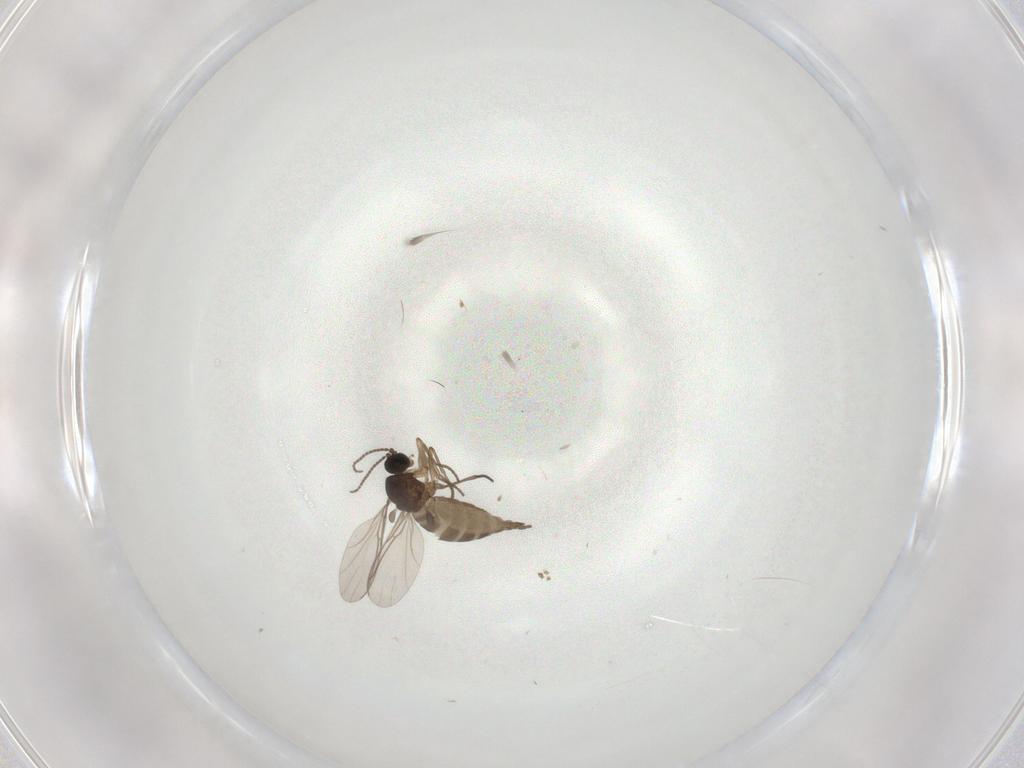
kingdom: Animalia
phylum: Arthropoda
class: Insecta
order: Diptera
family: Sciaridae
